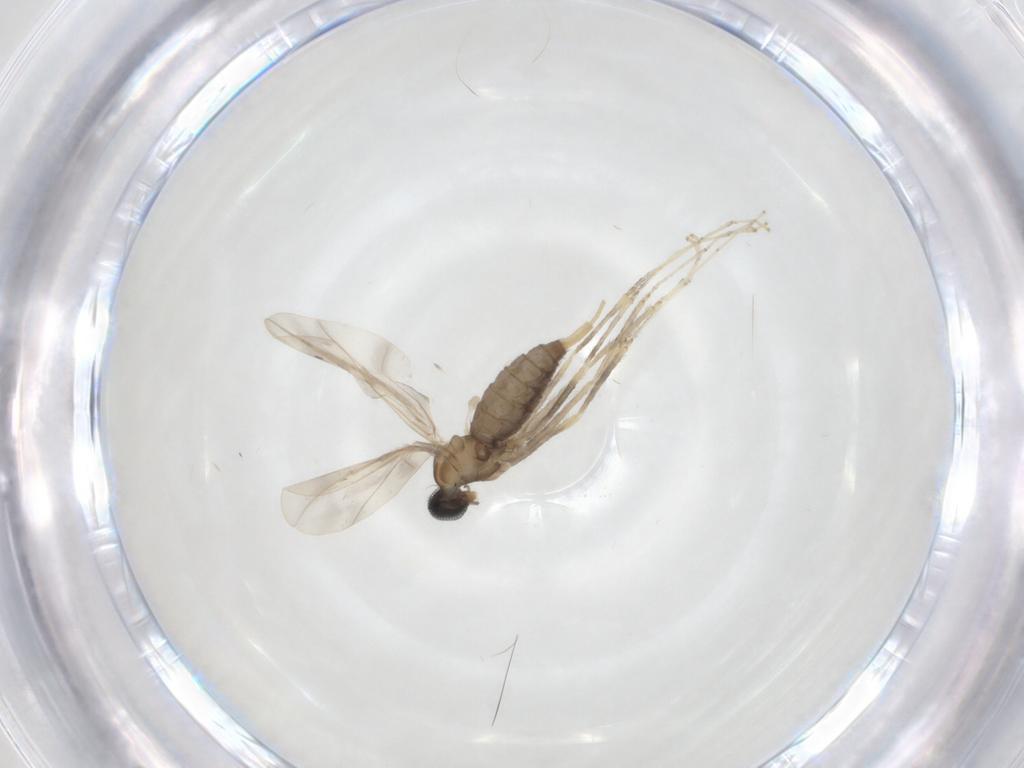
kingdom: Animalia
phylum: Arthropoda
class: Insecta
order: Diptera
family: Cecidomyiidae
